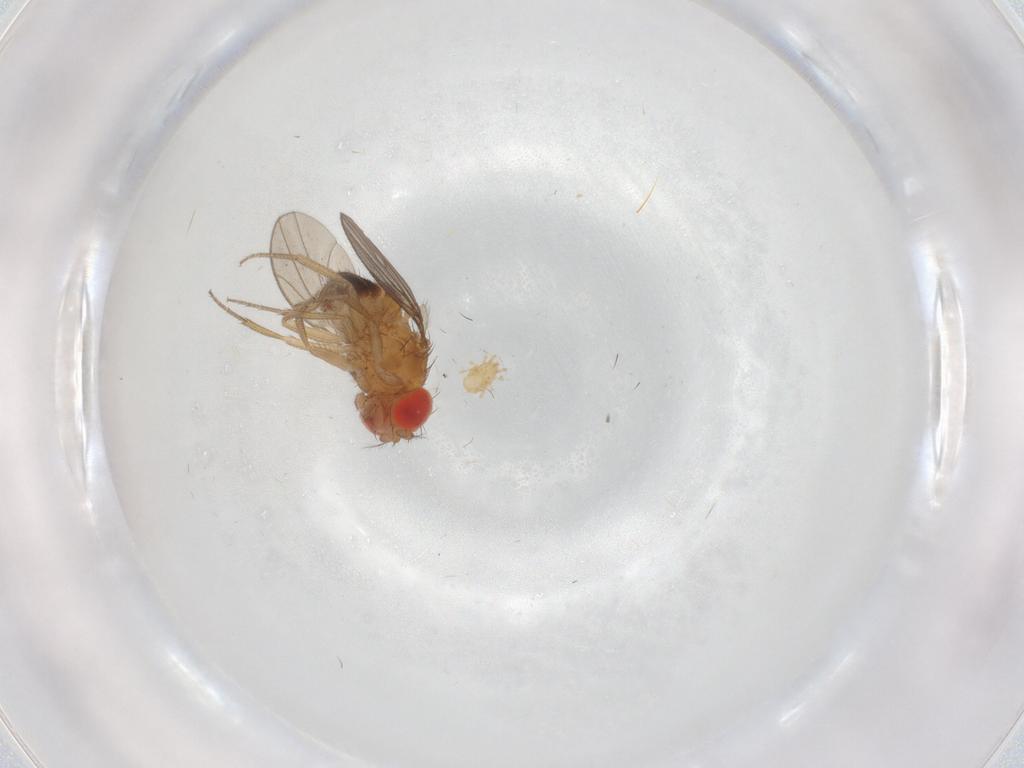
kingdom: Animalia
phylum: Arthropoda
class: Insecta
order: Diptera
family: Drosophilidae
